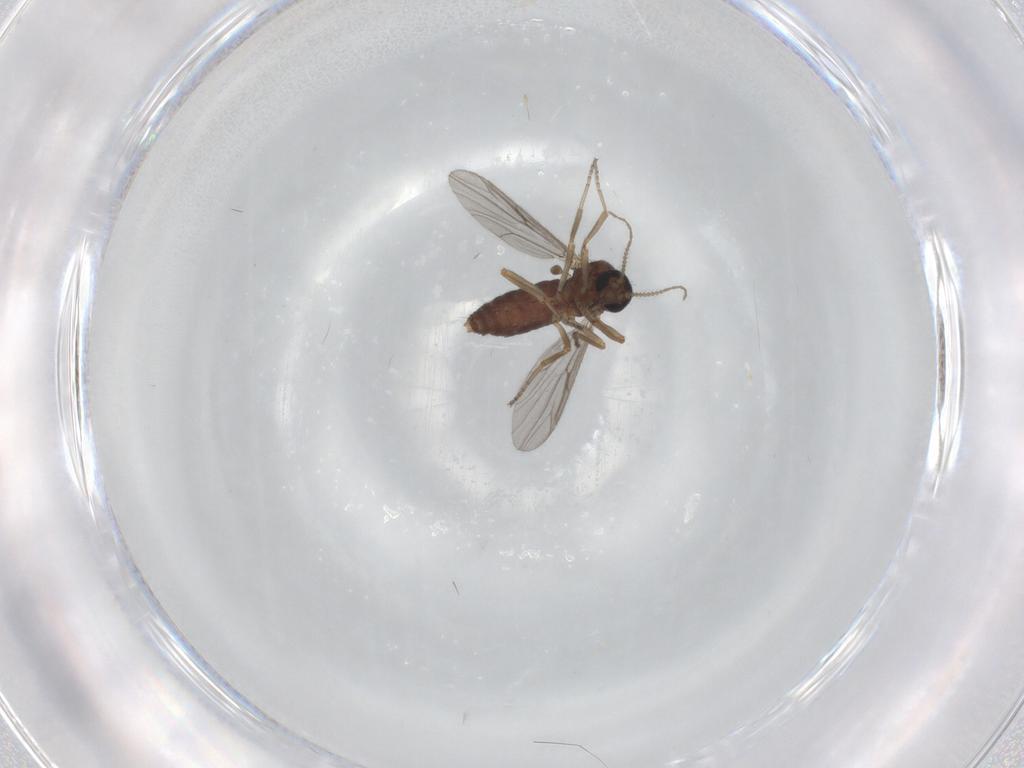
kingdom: Animalia
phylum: Arthropoda
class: Insecta
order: Diptera
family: Ceratopogonidae
